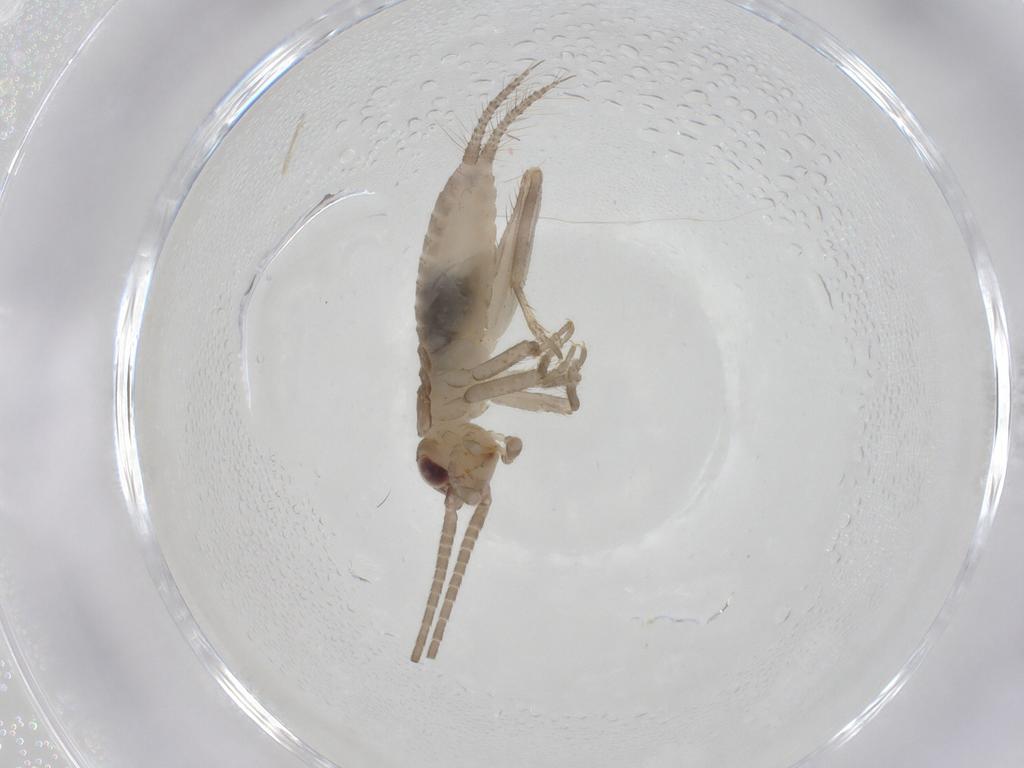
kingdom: Animalia
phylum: Arthropoda
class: Insecta
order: Orthoptera
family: Gryllidae
